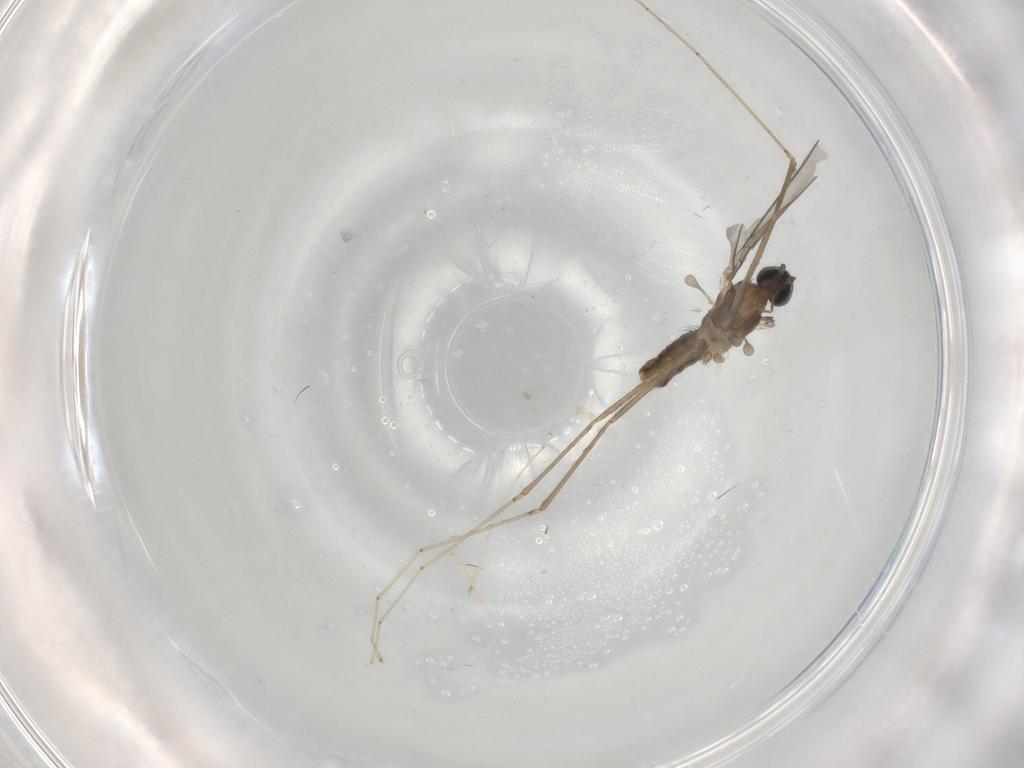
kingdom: Animalia
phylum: Arthropoda
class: Insecta
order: Diptera
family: Cecidomyiidae
